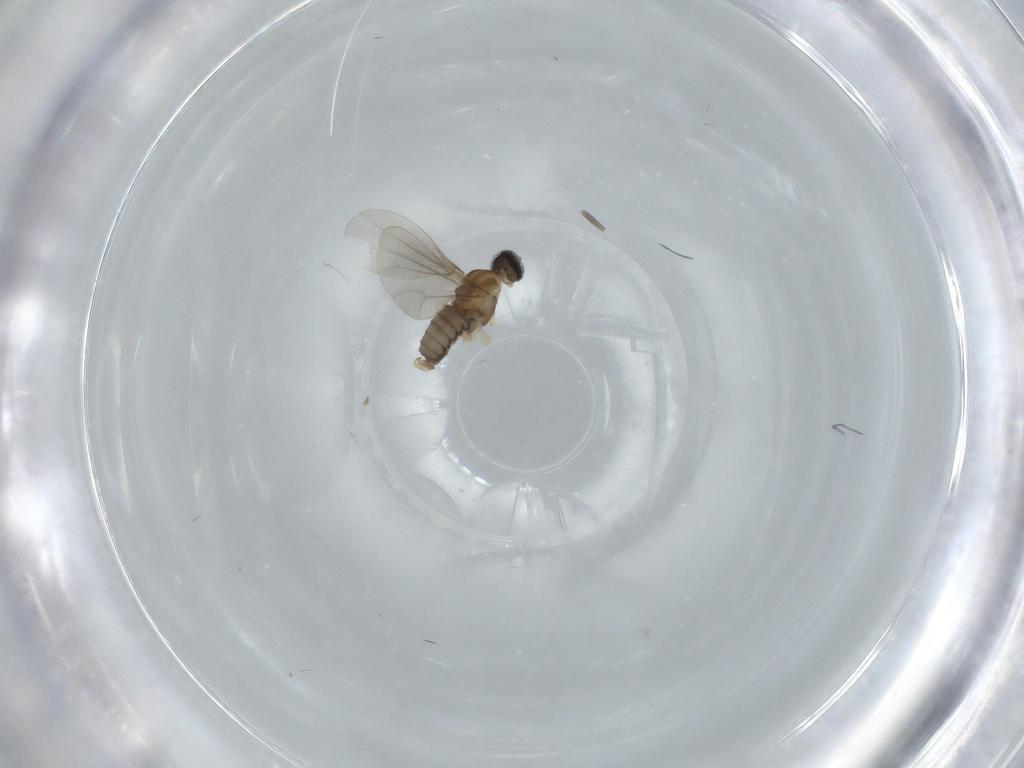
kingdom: Animalia
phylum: Arthropoda
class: Insecta
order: Diptera
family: Cecidomyiidae
